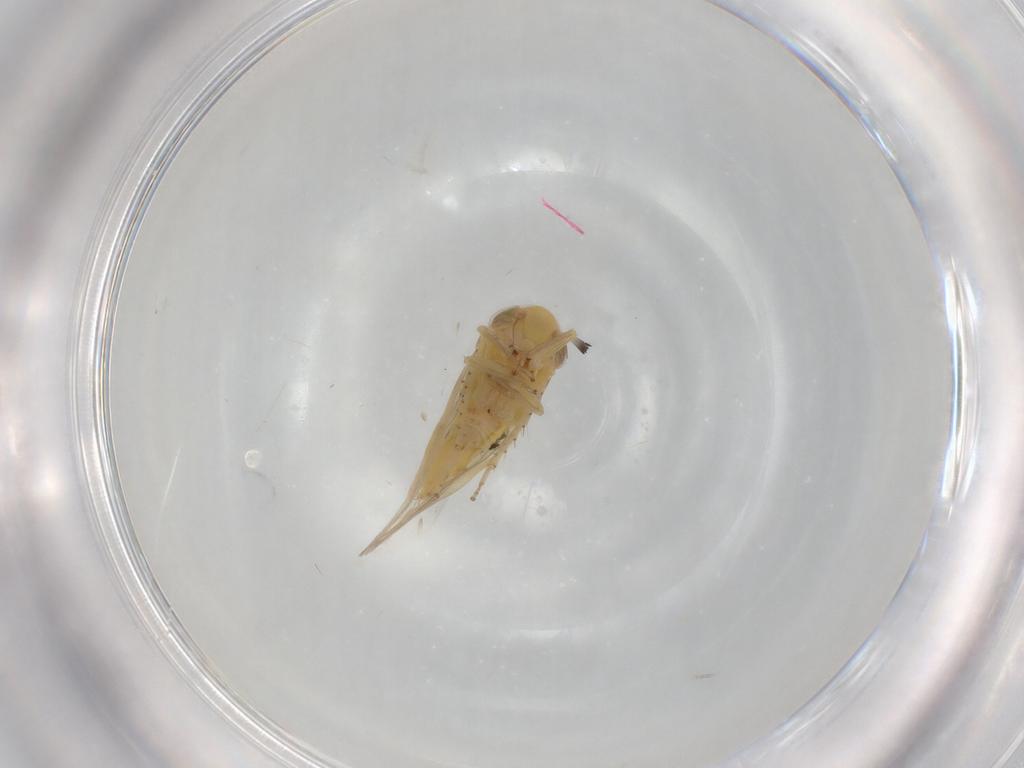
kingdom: Animalia
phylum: Arthropoda
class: Insecta
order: Hemiptera
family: Cicadellidae
